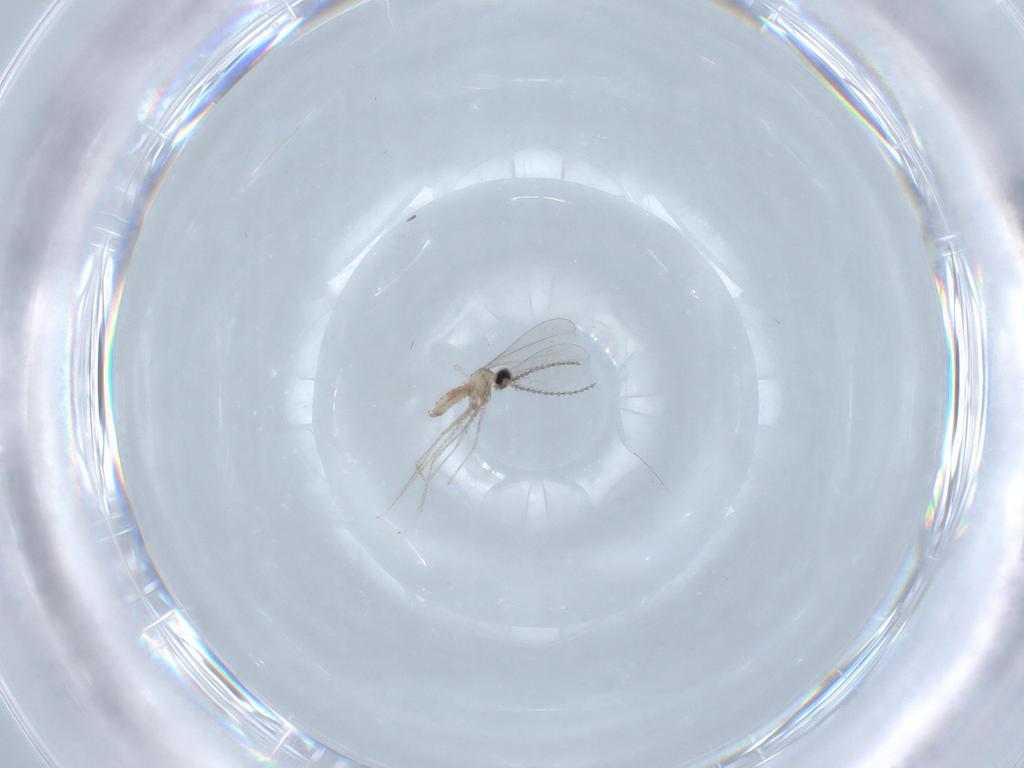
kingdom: Animalia
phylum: Arthropoda
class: Insecta
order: Diptera
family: Cecidomyiidae
